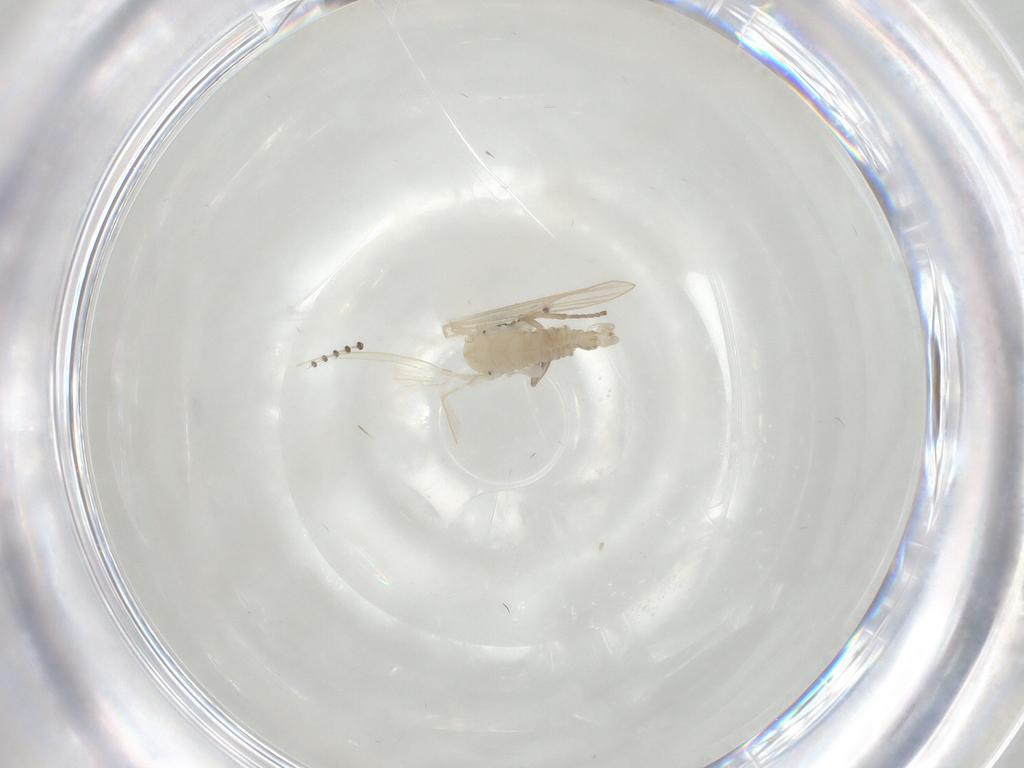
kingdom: Animalia
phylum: Arthropoda
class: Insecta
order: Diptera
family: Psychodidae
